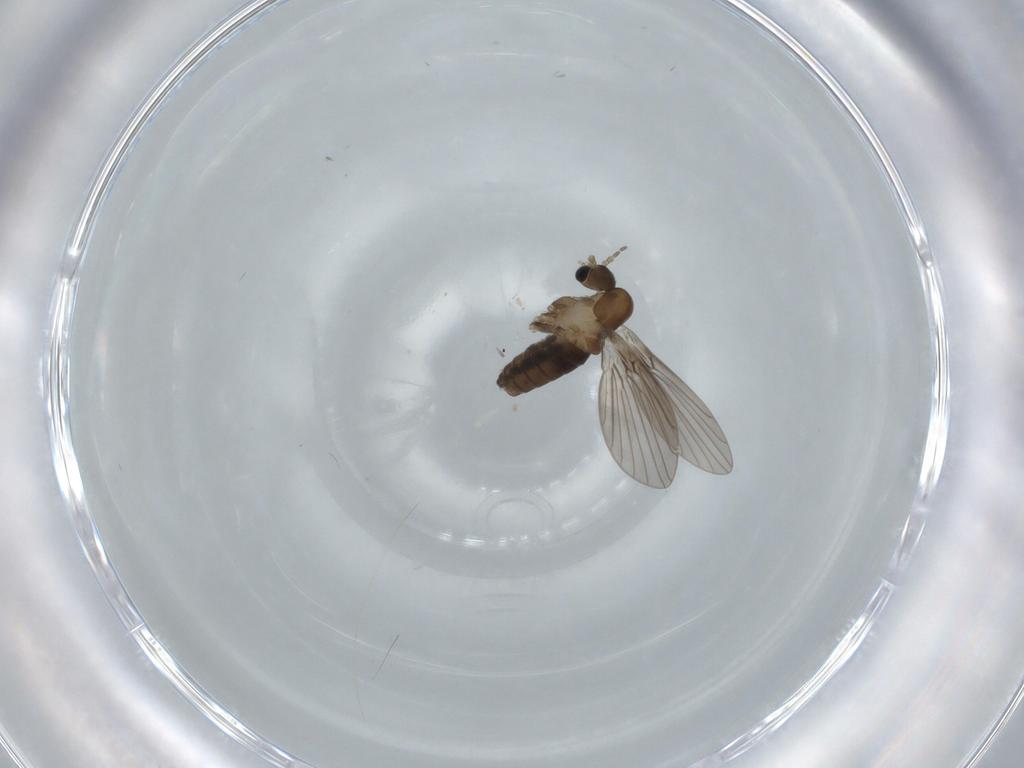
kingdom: Animalia
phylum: Arthropoda
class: Insecta
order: Diptera
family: Psychodidae
